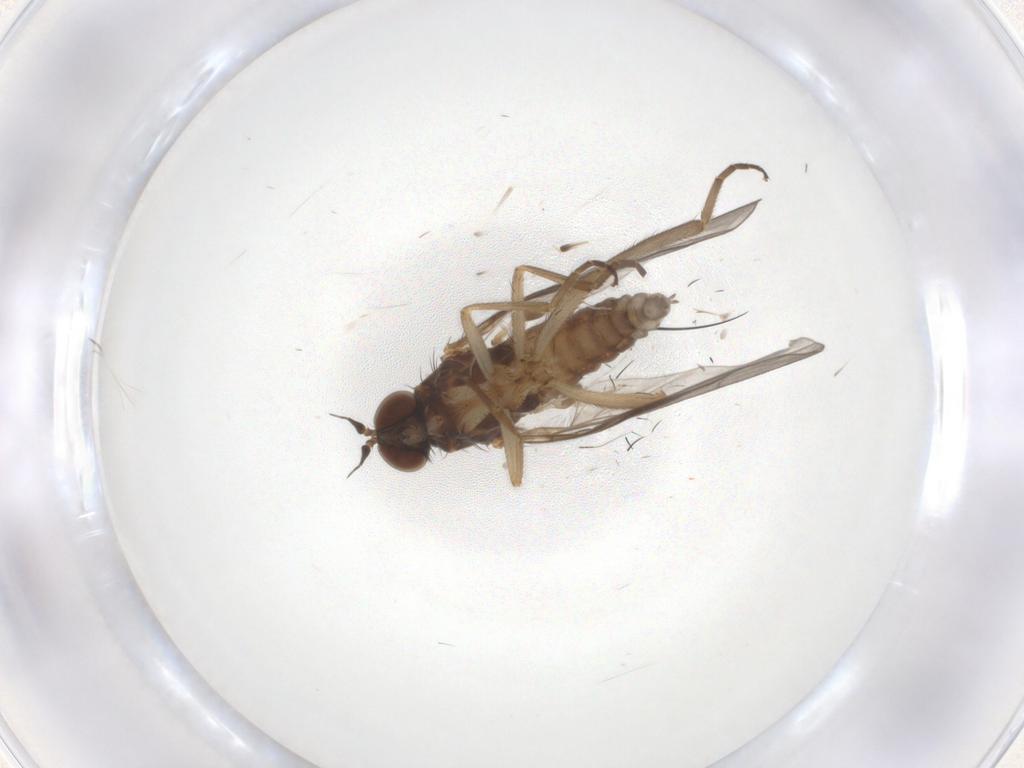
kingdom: Animalia
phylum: Arthropoda
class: Insecta
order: Diptera
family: Empididae
